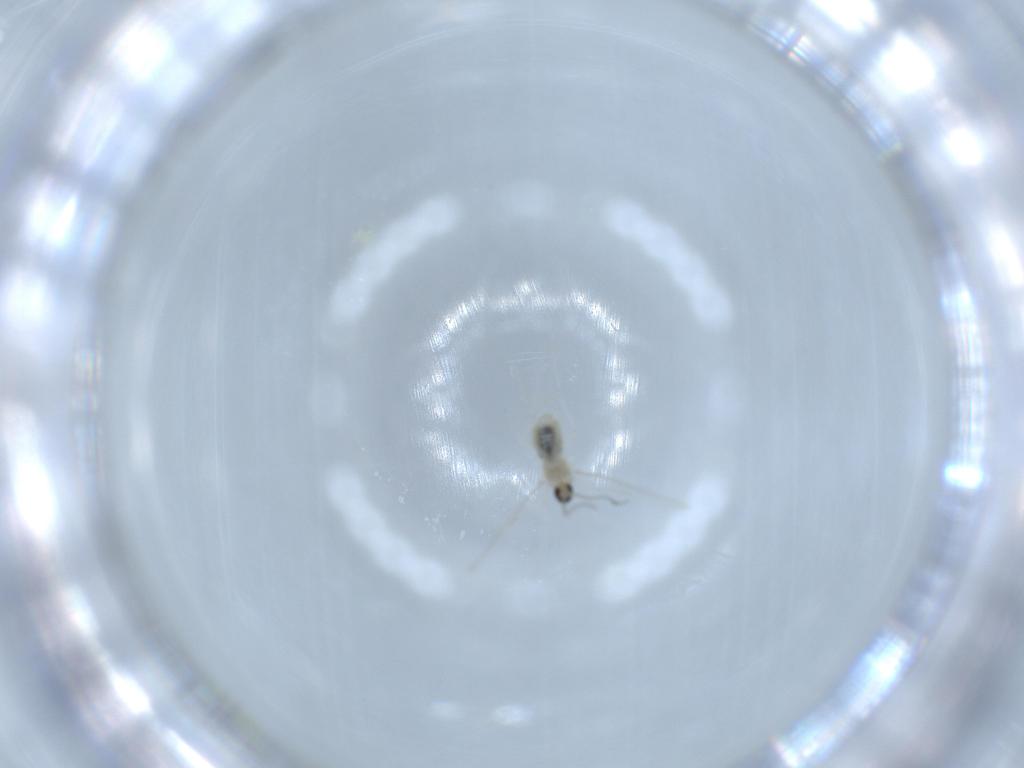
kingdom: Animalia
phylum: Arthropoda
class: Insecta
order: Diptera
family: Cecidomyiidae
